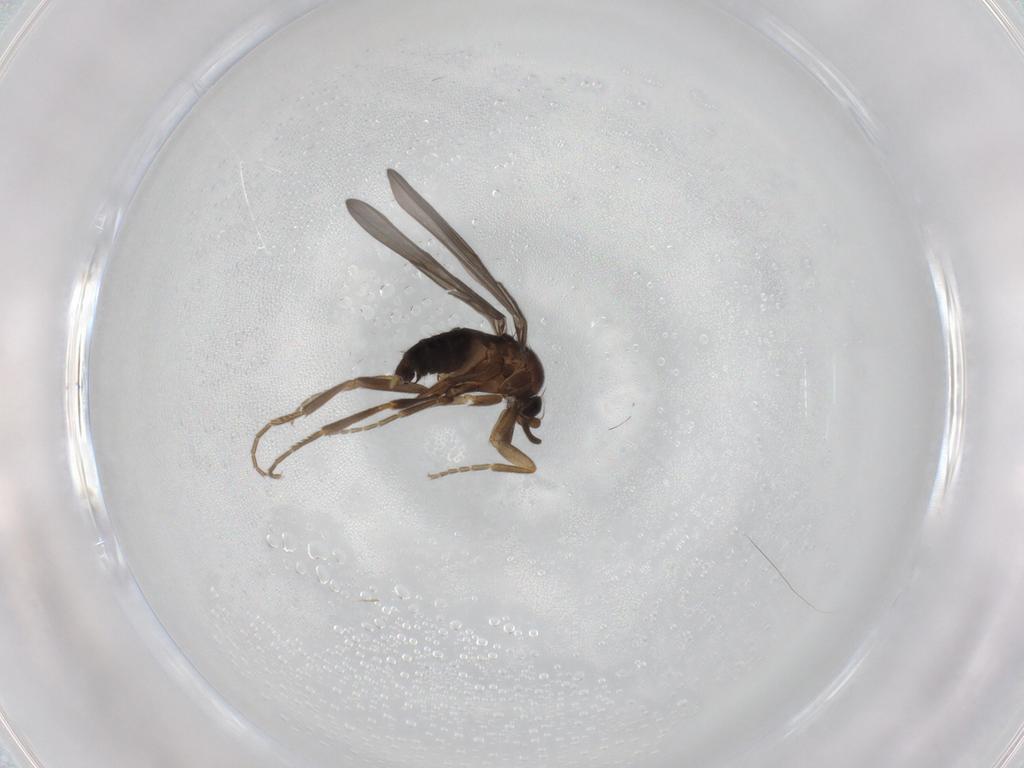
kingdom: Animalia
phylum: Arthropoda
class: Insecta
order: Diptera
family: Phoridae
